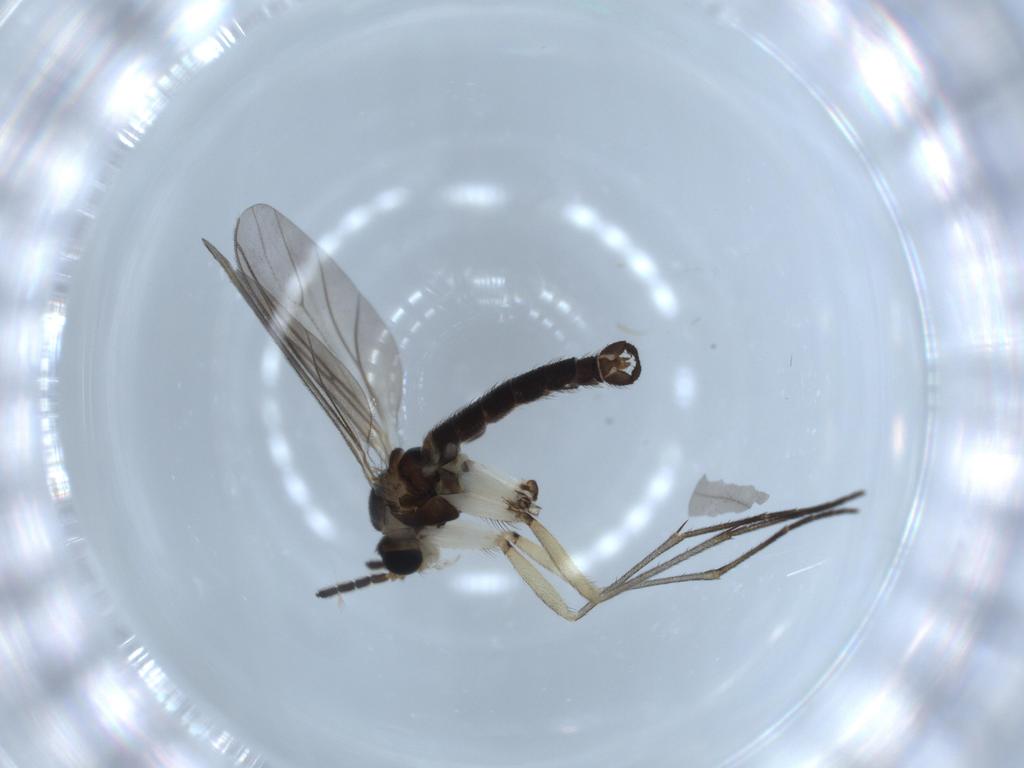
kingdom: Animalia
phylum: Arthropoda
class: Insecta
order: Diptera
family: Sciaridae
